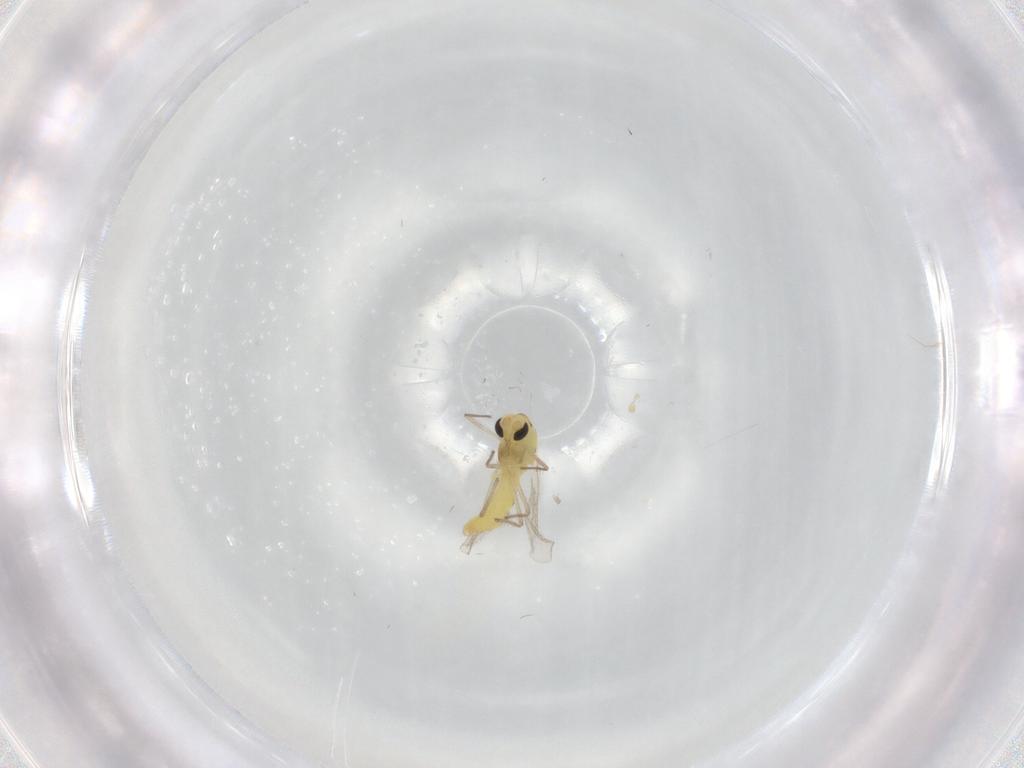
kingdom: Animalia
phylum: Arthropoda
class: Insecta
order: Diptera
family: Chironomidae
